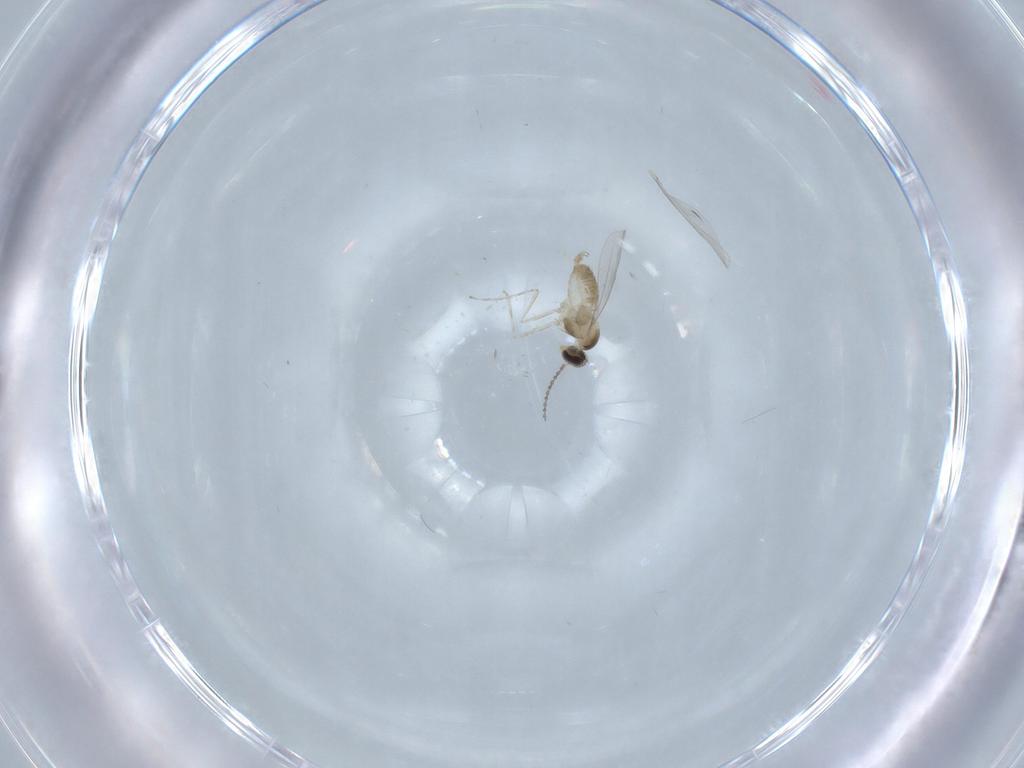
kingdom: Animalia
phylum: Arthropoda
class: Insecta
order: Diptera
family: Cecidomyiidae
